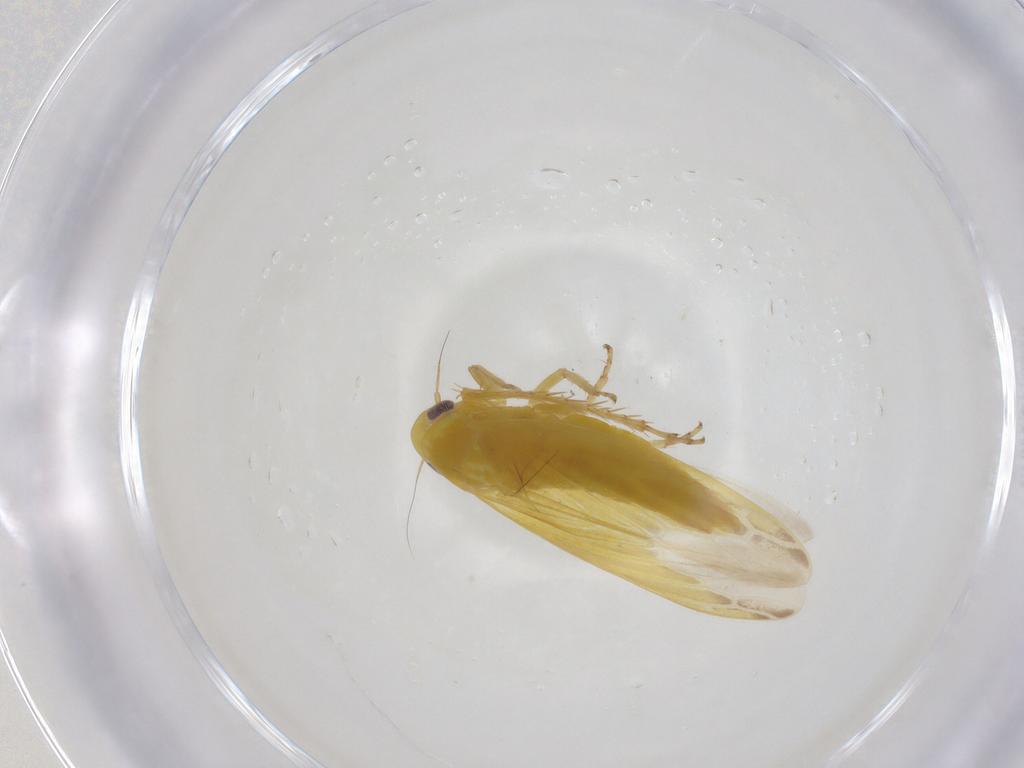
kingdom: Animalia
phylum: Arthropoda
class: Insecta
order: Hemiptera
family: Cicadellidae
